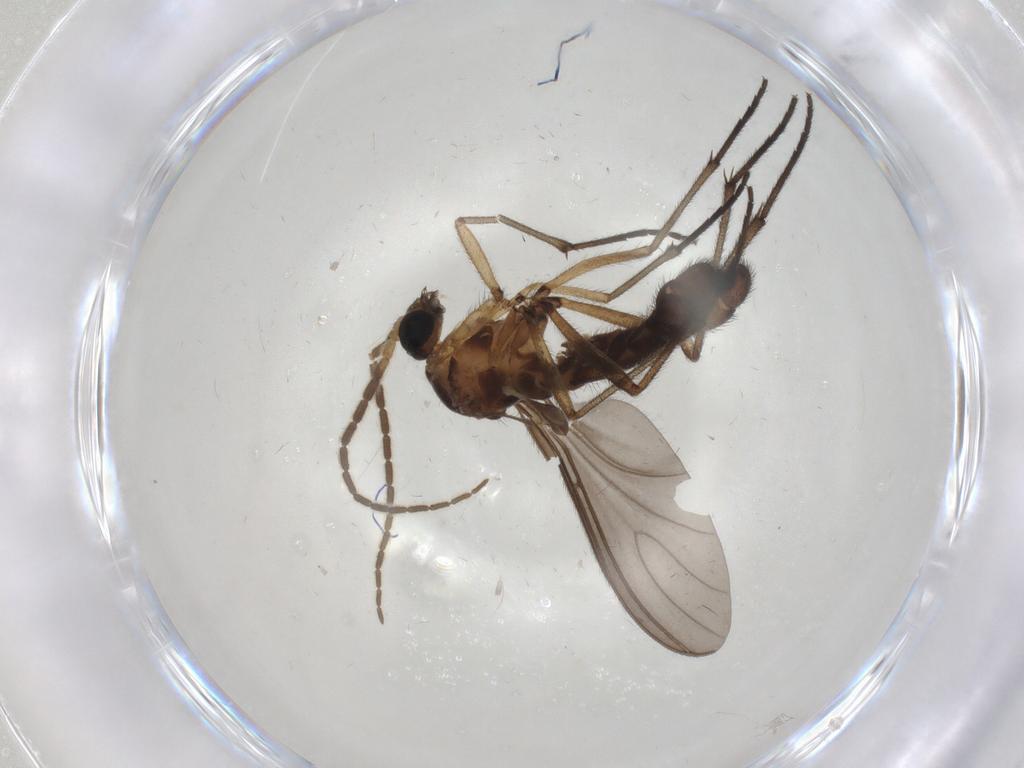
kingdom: Animalia
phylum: Arthropoda
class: Insecta
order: Diptera
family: Sciaridae
